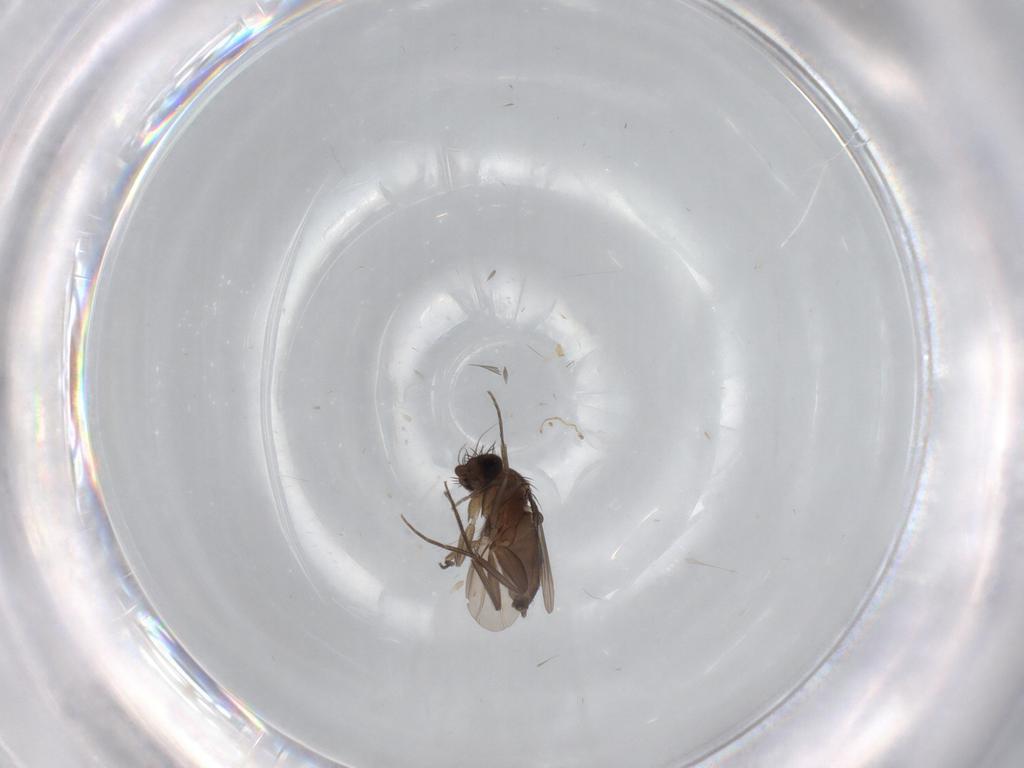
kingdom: Animalia
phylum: Arthropoda
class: Insecta
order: Diptera
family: Phoridae
